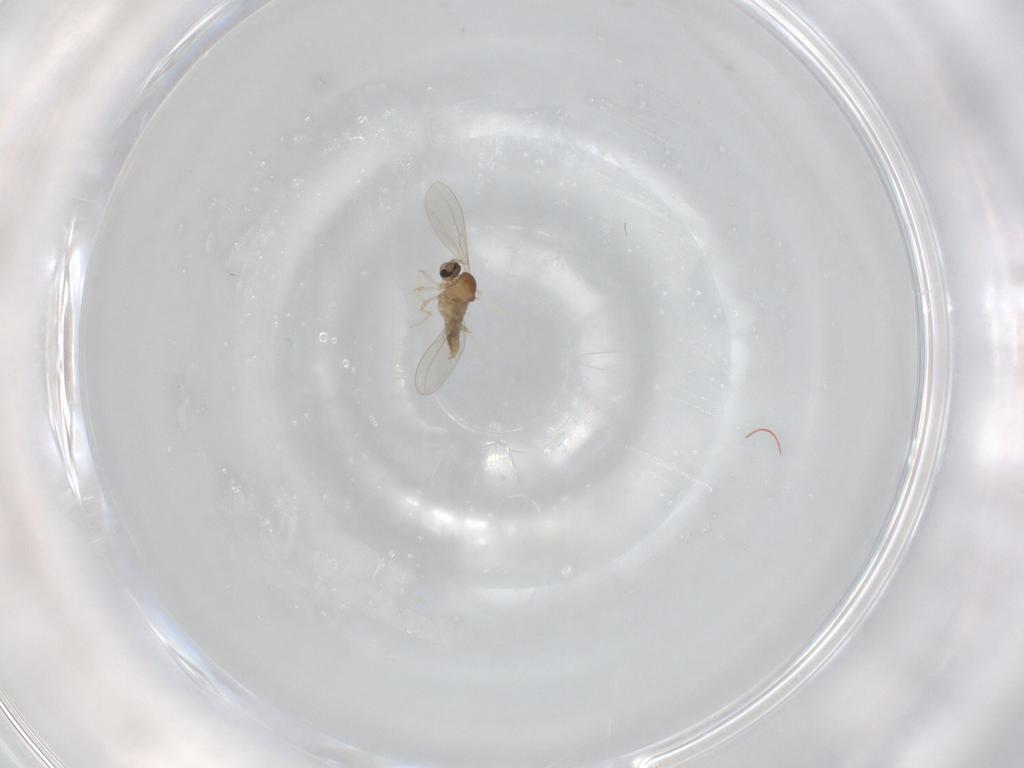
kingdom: Animalia
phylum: Arthropoda
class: Insecta
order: Diptera
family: Cecidomyiidae
